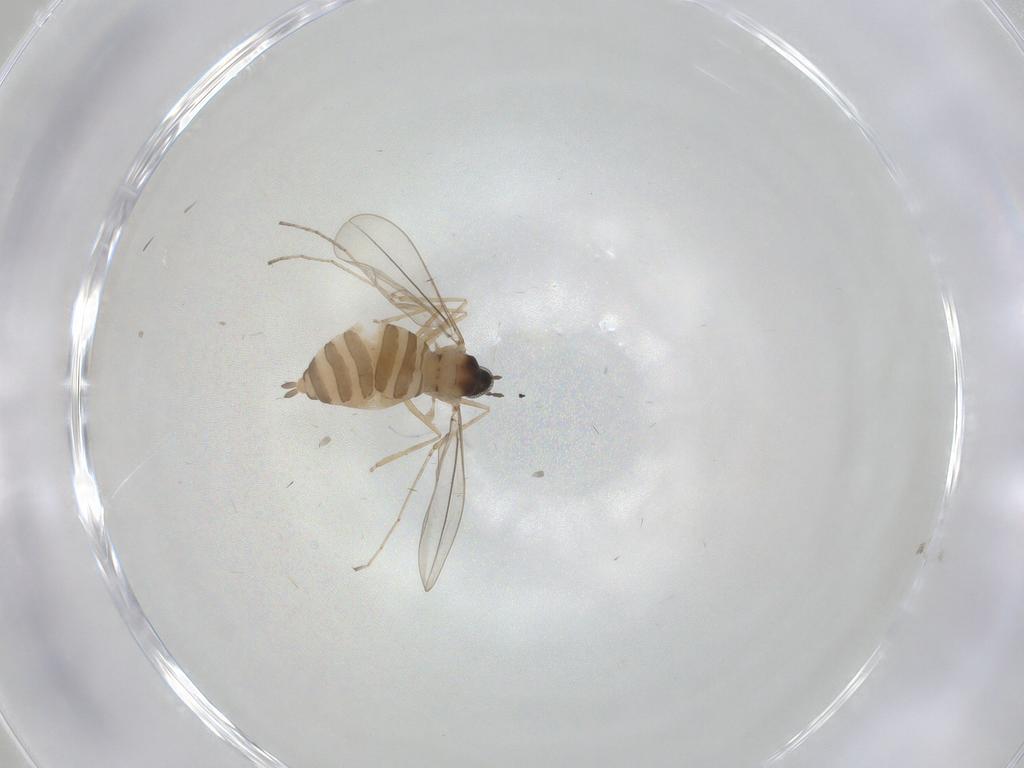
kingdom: Animalia
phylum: Arthropoda
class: Insecta
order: Diptera
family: Cecidomyiidae
